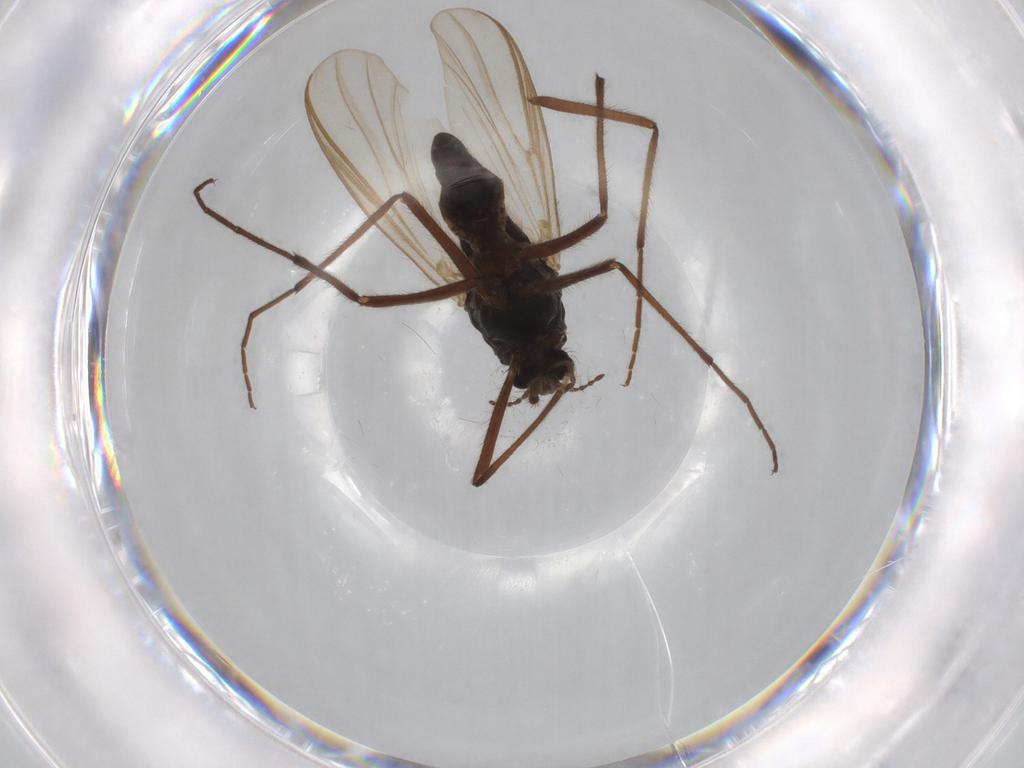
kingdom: Animalia
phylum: Arthropoda
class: Insecta
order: Diptera
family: Sphaeroceridae
